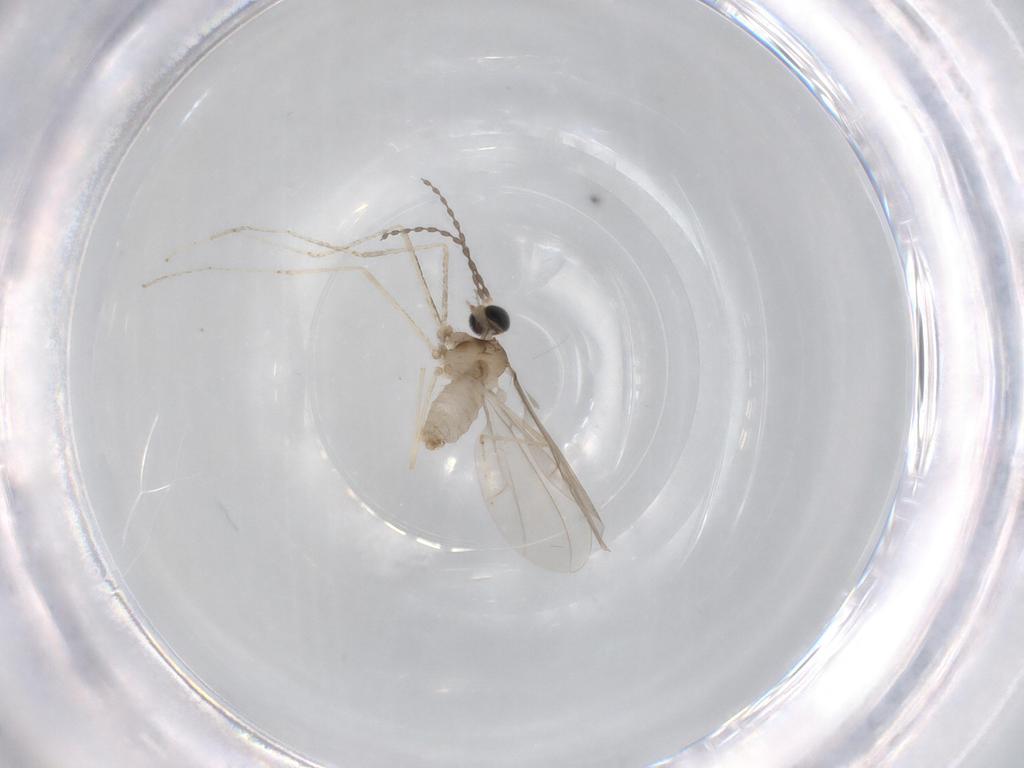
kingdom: Animalia
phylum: Arthropoda
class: Insecta
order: Diptera
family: Cecidomyiidae
